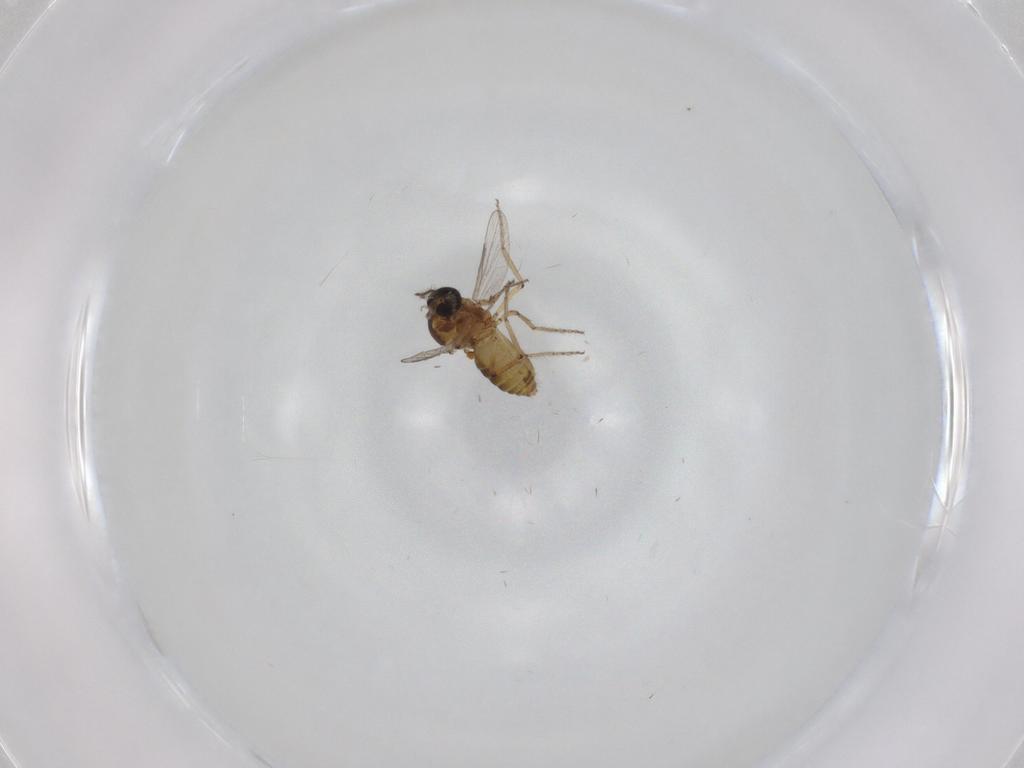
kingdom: Animalia
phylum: Arthropoda
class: Insecta
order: Diptera
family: Ceratopogonidae
